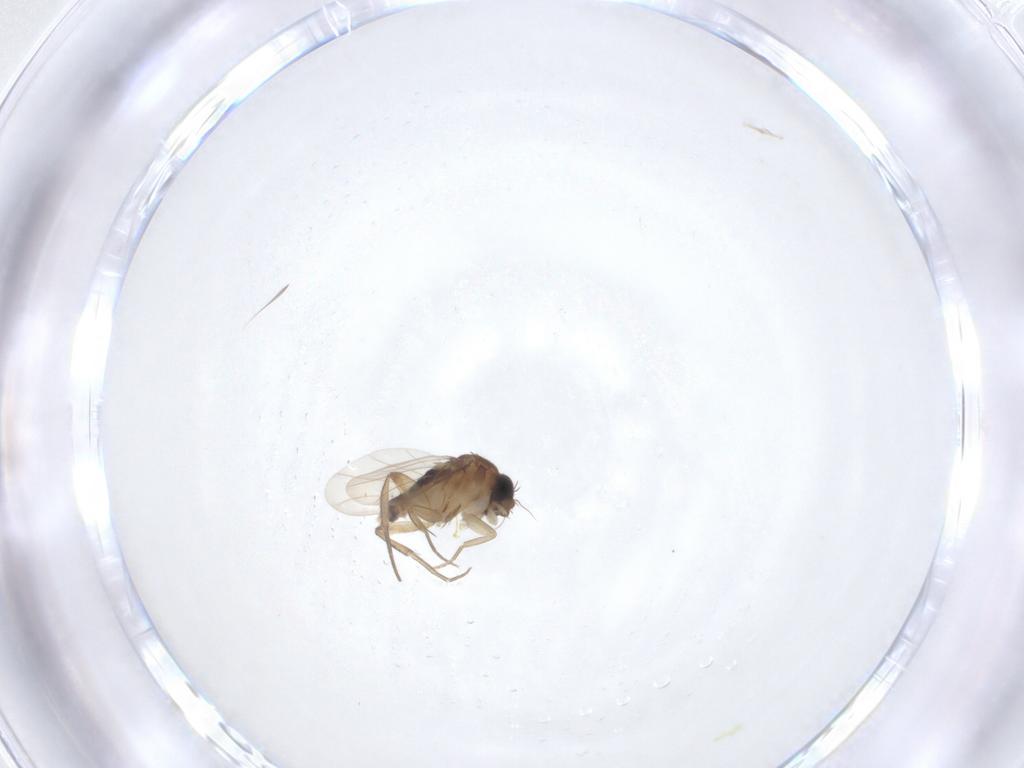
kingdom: Animalia
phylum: Arthropoda
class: Insecta
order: Diptera
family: Phoridae
